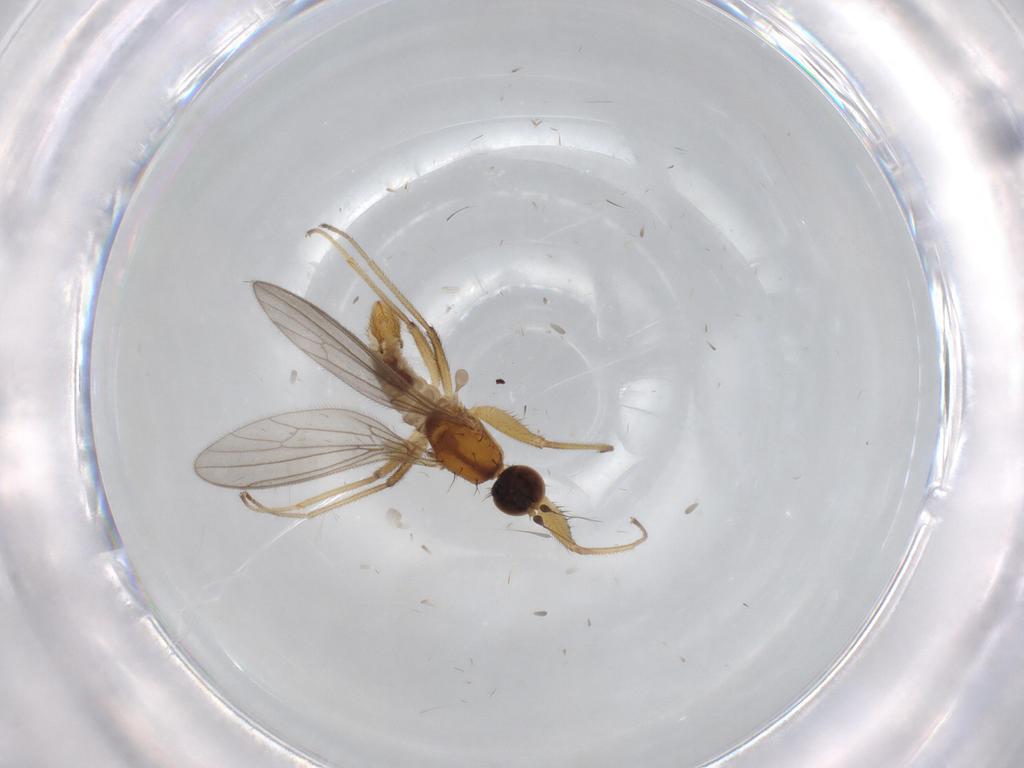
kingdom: Animalia
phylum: Arthropoda
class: Insecta
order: Diptera
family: Empididae
